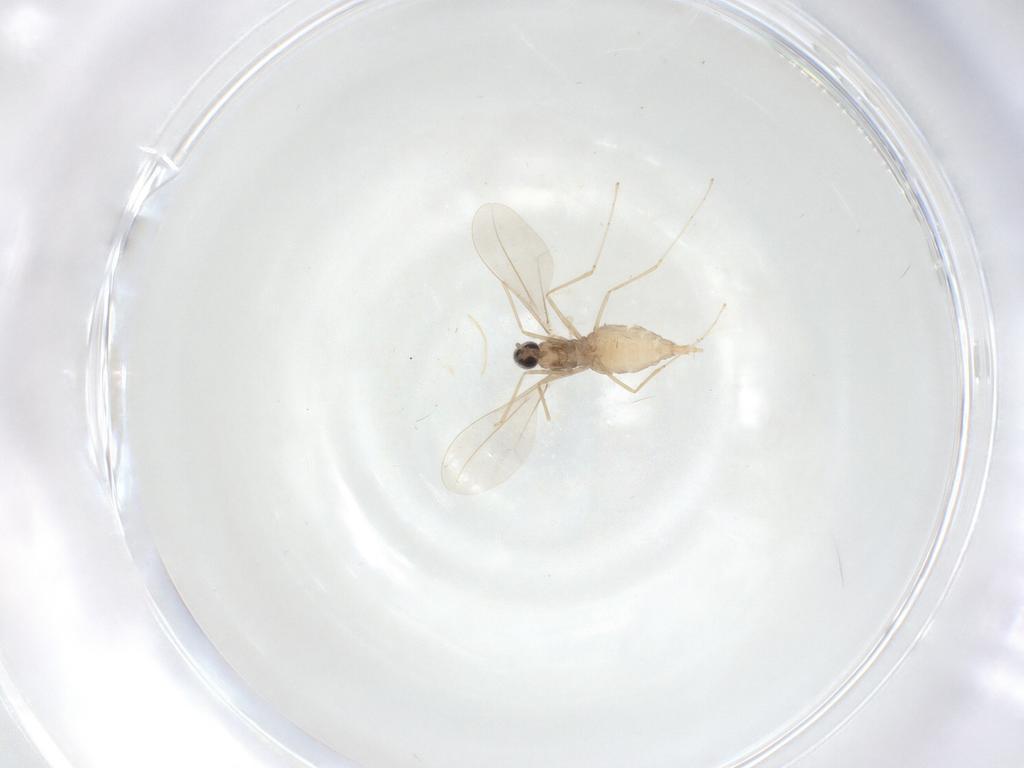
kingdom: Animalia
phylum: Arthropoda
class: Insecta
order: Diptera
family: Cecidomyiidae
